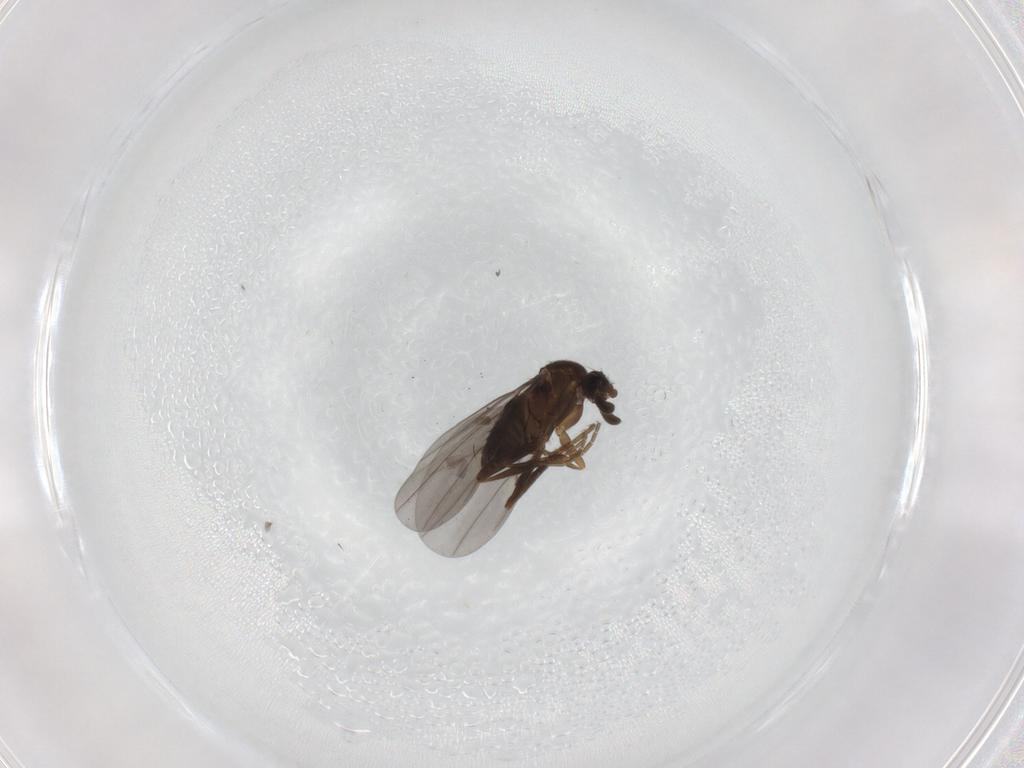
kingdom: Animalia
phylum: Arthropoda
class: Insecta
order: Diptera
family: Phoridae
